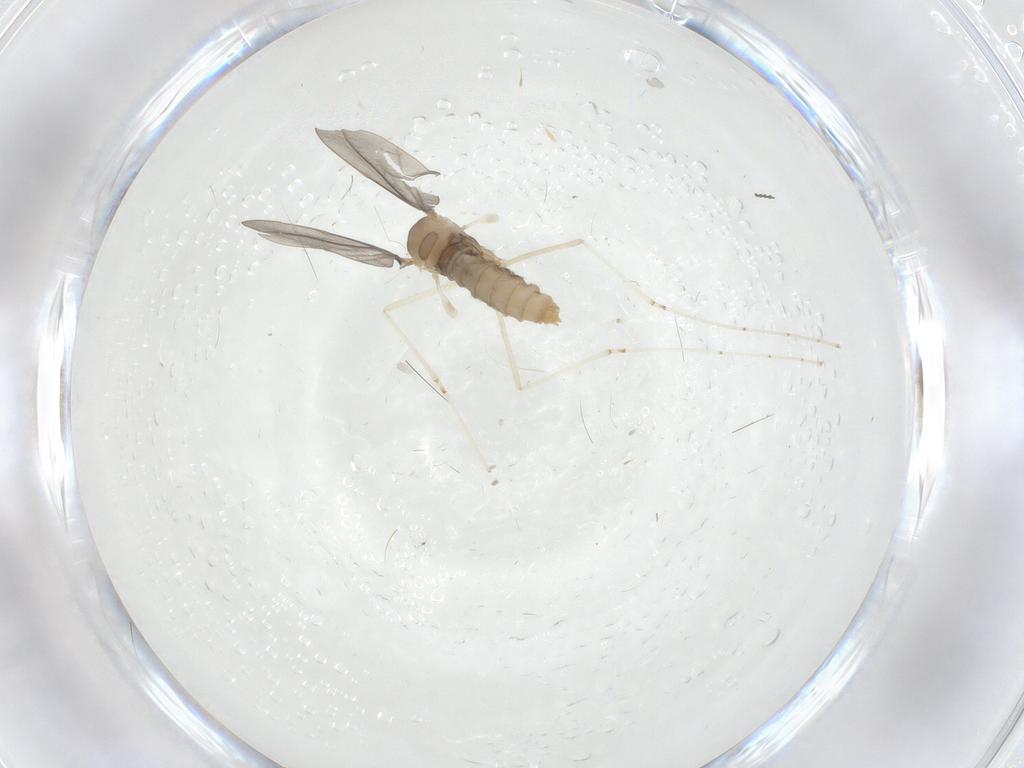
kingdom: Animalia
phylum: Arthropoda
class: Insecta
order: Diptera
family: Cecidomyiidae
